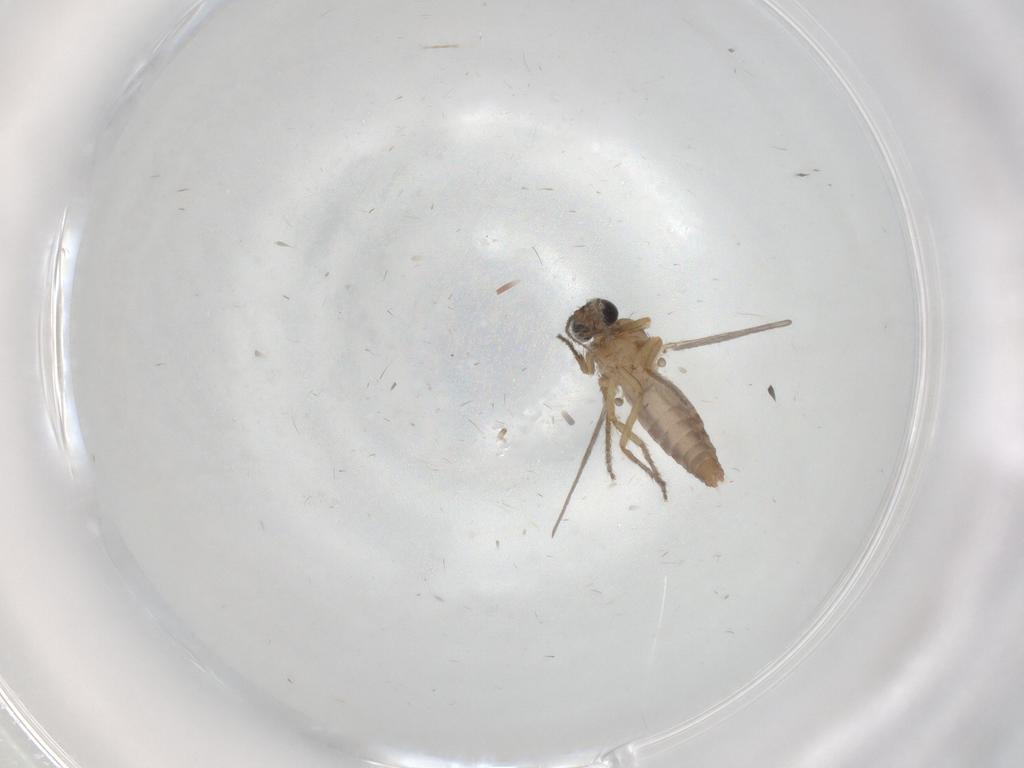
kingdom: Animalia
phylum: Arthropoda
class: Insecta
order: Diptera
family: Ceratopogonidae
